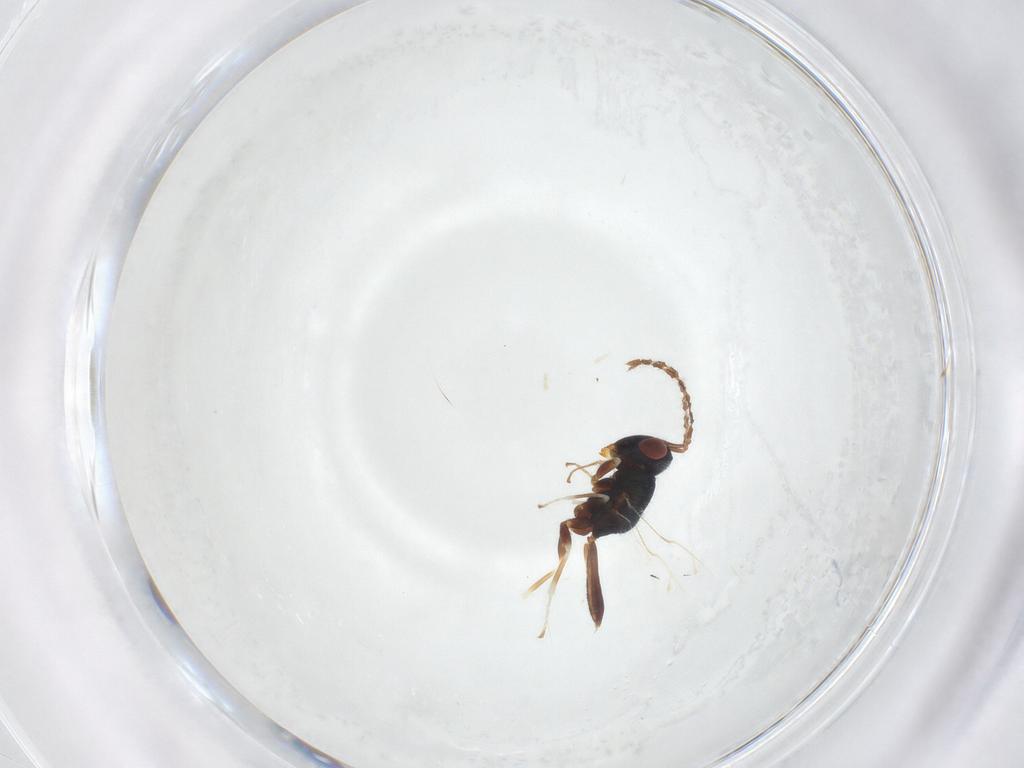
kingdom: Animalia
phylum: Arthropoda
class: Insecta
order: Hymenoptera
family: Pteromalidae
